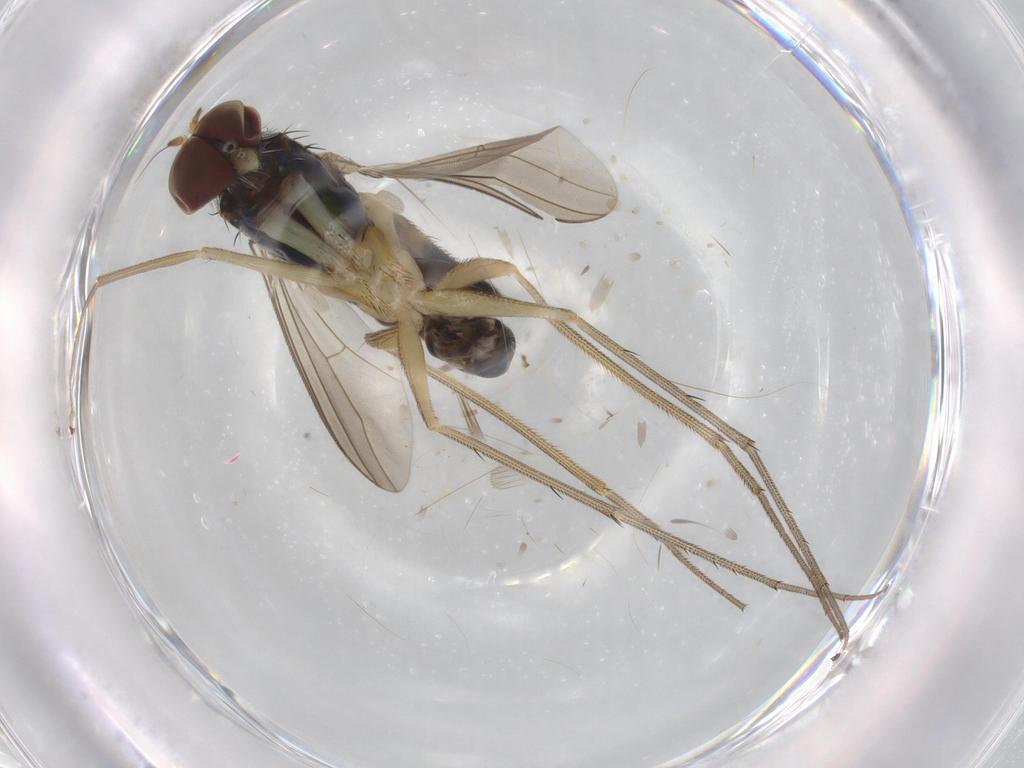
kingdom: Animalia
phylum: Arthropoda
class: Insecta
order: Diptera
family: Dolichopodidae
